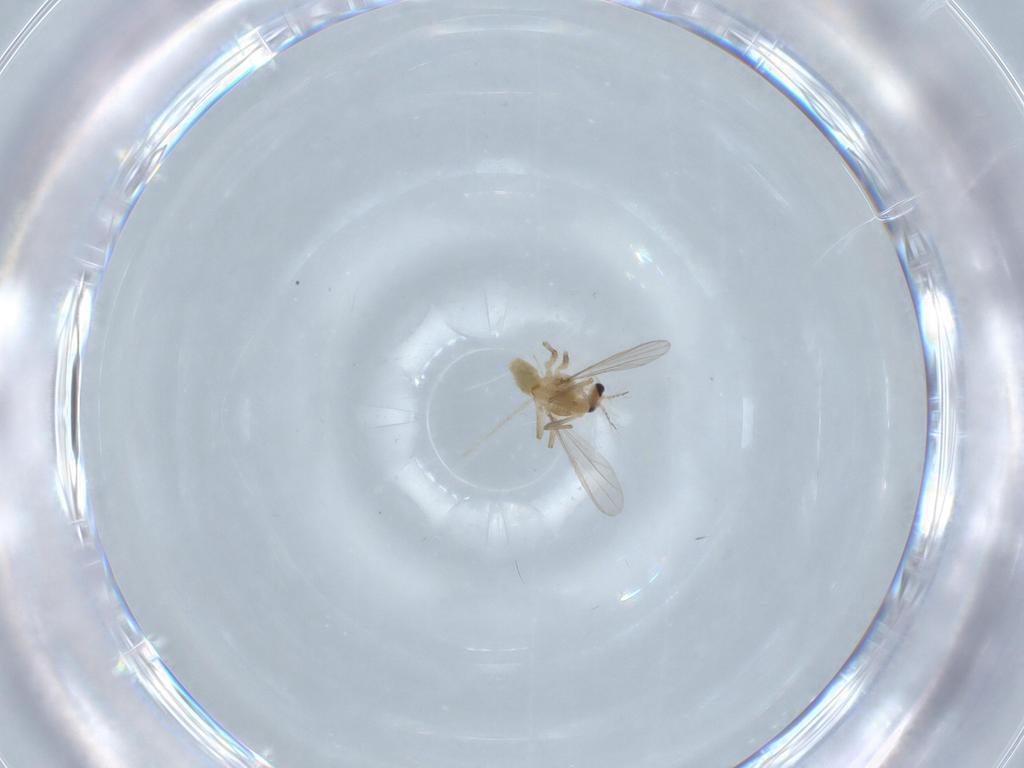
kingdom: Animalia
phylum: Arthropoda
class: Insecta
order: Diptera
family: Chironomidae
